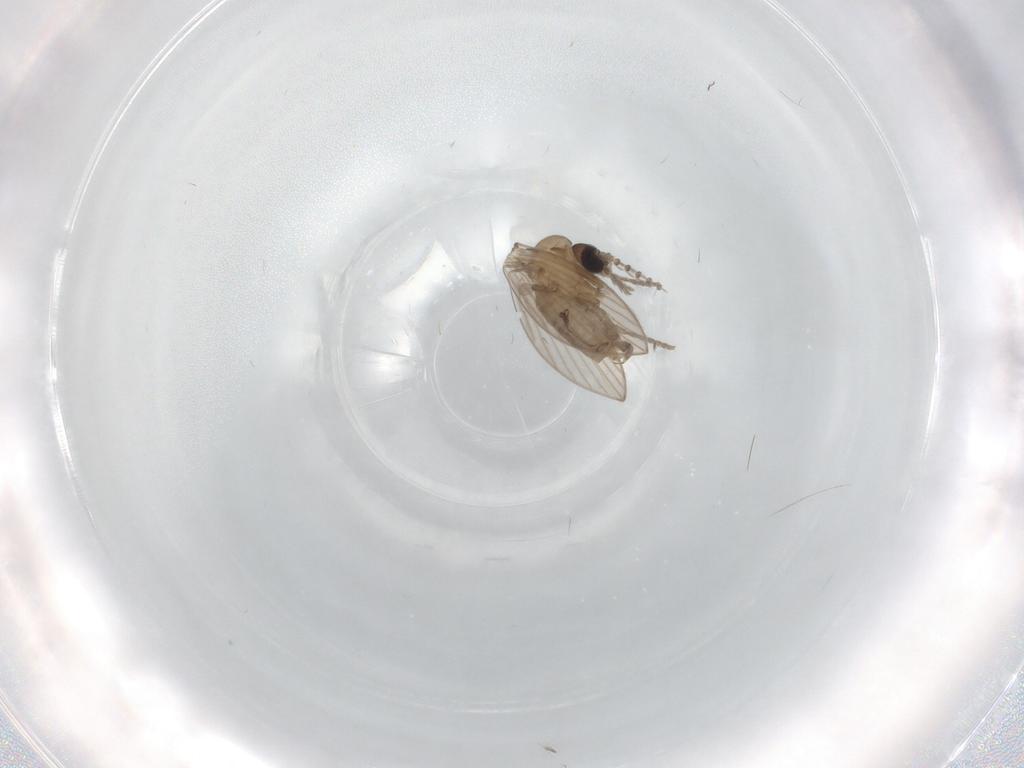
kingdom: Animalia
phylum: Arthropoda
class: Insecta
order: Diptera
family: Psychodidae
